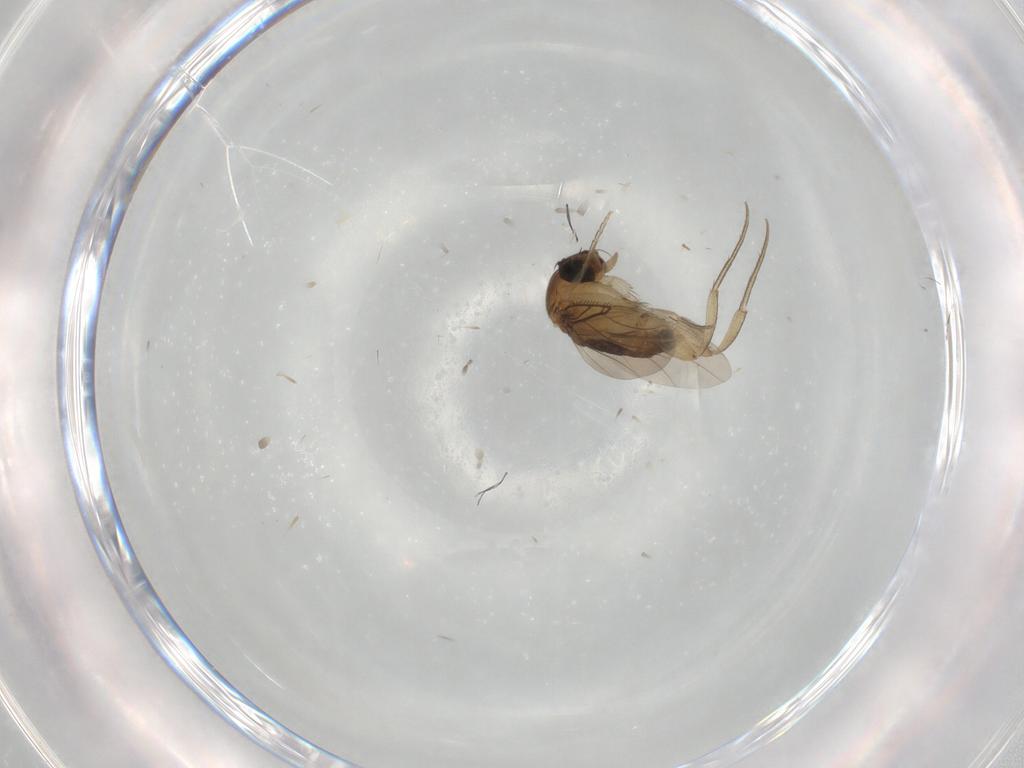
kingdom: Animalia
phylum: Arthropoda
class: Insecta
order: Diptera
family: Phoridae
